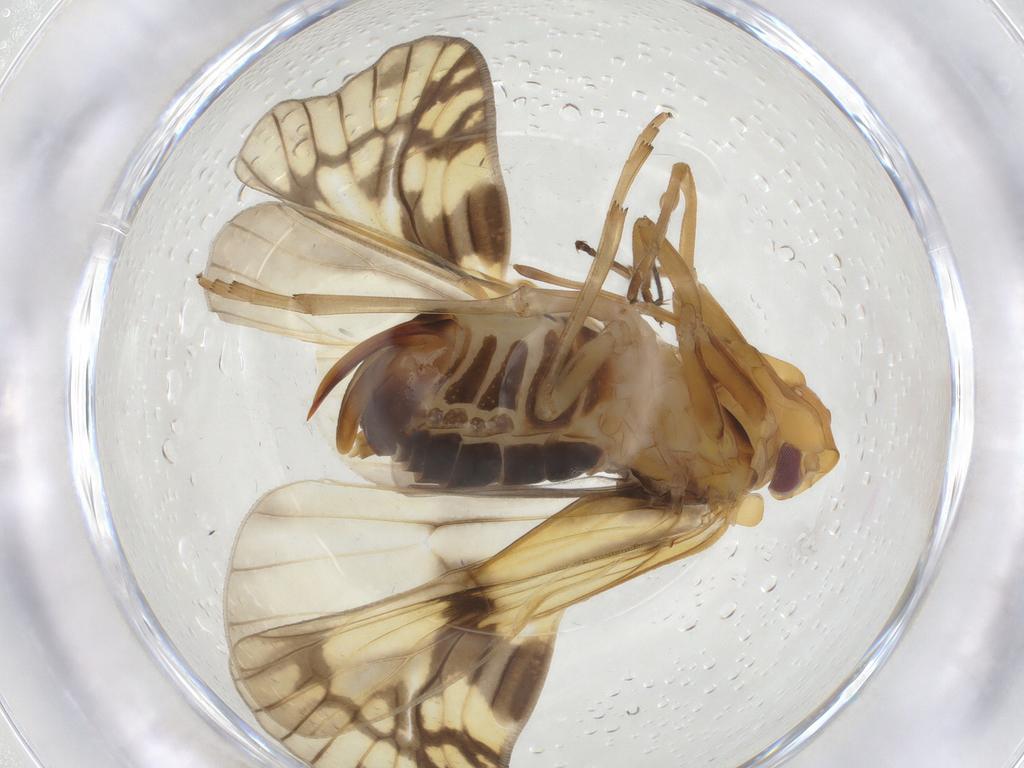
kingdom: Animalia
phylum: Arthropoda
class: Insecta
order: Hemiptera
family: Cixiidae
